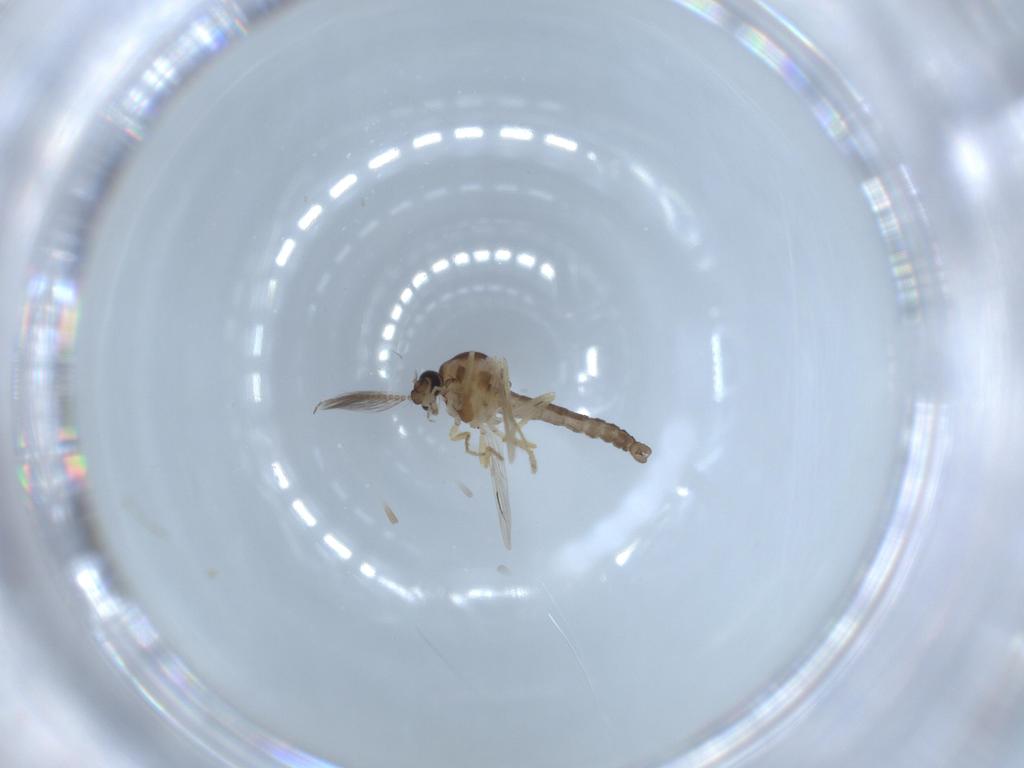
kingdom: Animalia
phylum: Arthropoda
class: Insecta
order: Diptera
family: Ceratopogonidae
